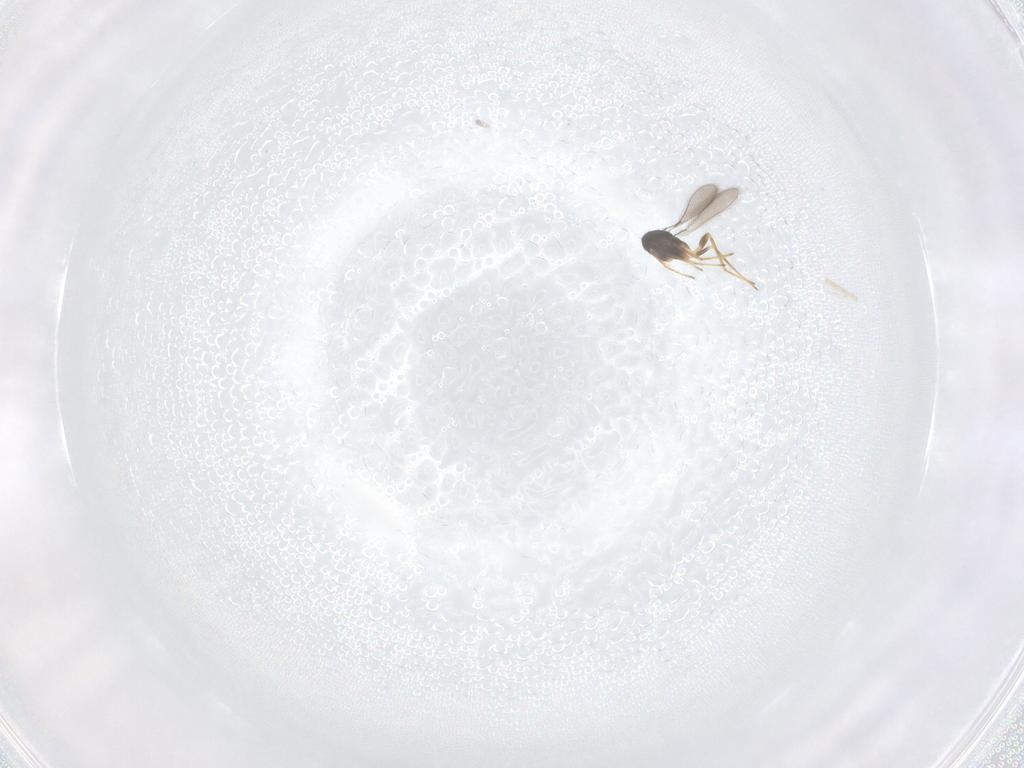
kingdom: Animalia
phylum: Arthropoda
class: Insecta
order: Hymenoptera
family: Mymaridae
